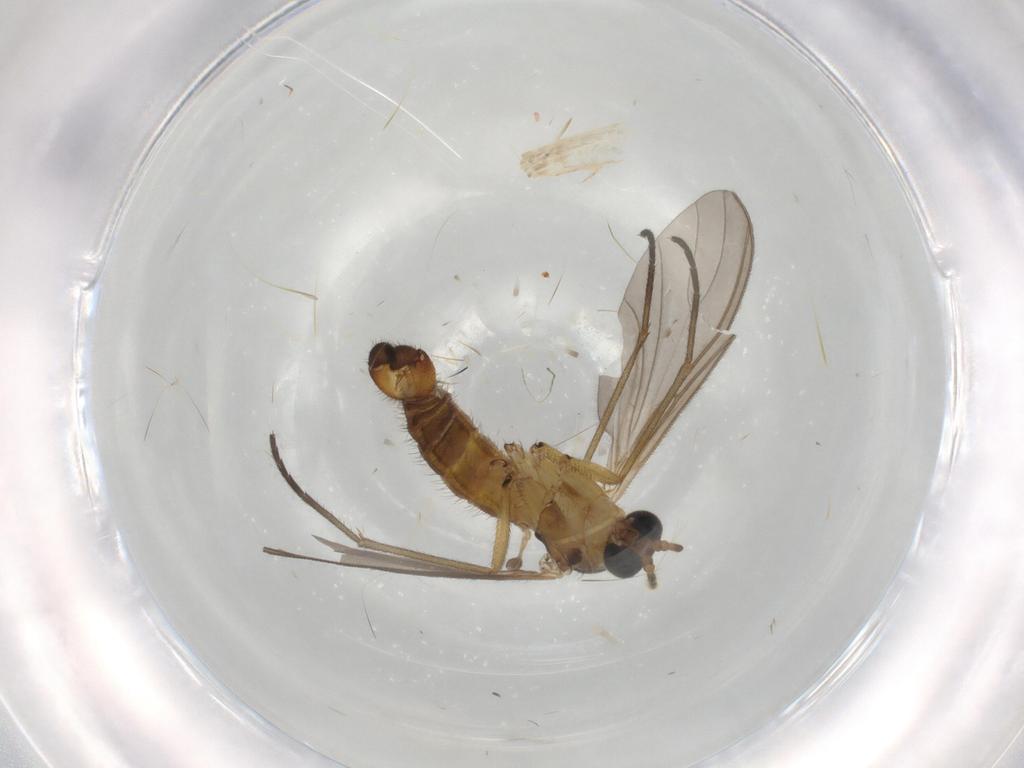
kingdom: Animalia
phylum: Arthropoda
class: Insecta
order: Diptera
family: Sciaridae
